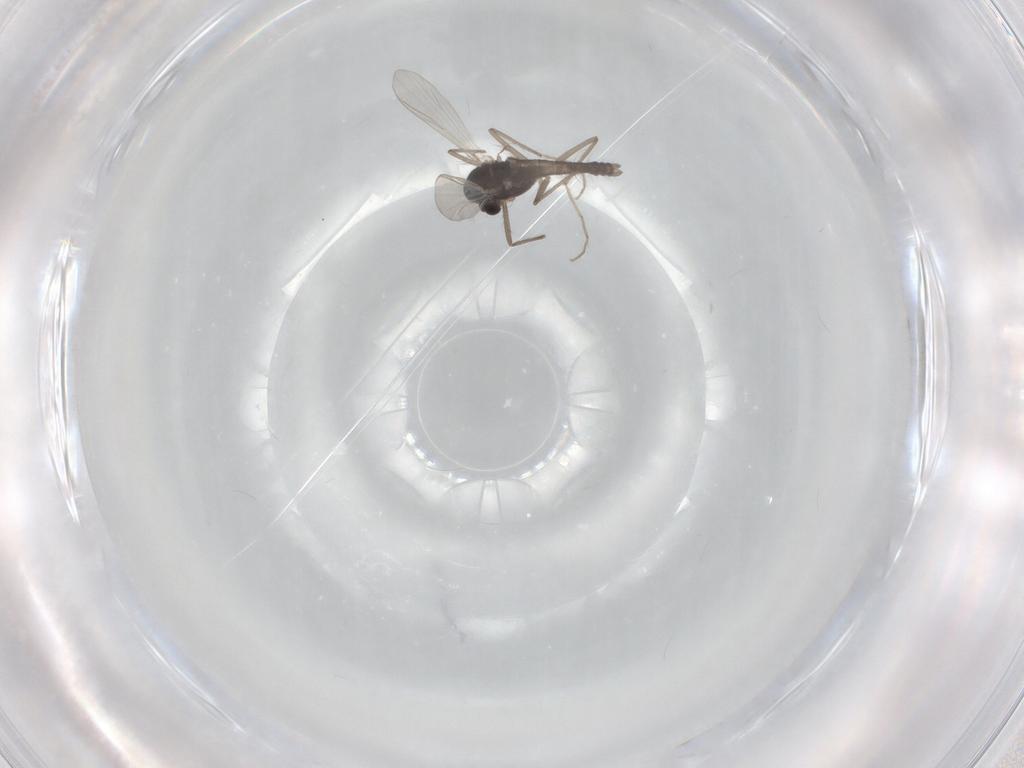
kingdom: Animalia
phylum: Arthropoda
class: Insecta
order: Diptera
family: Chironomidae
